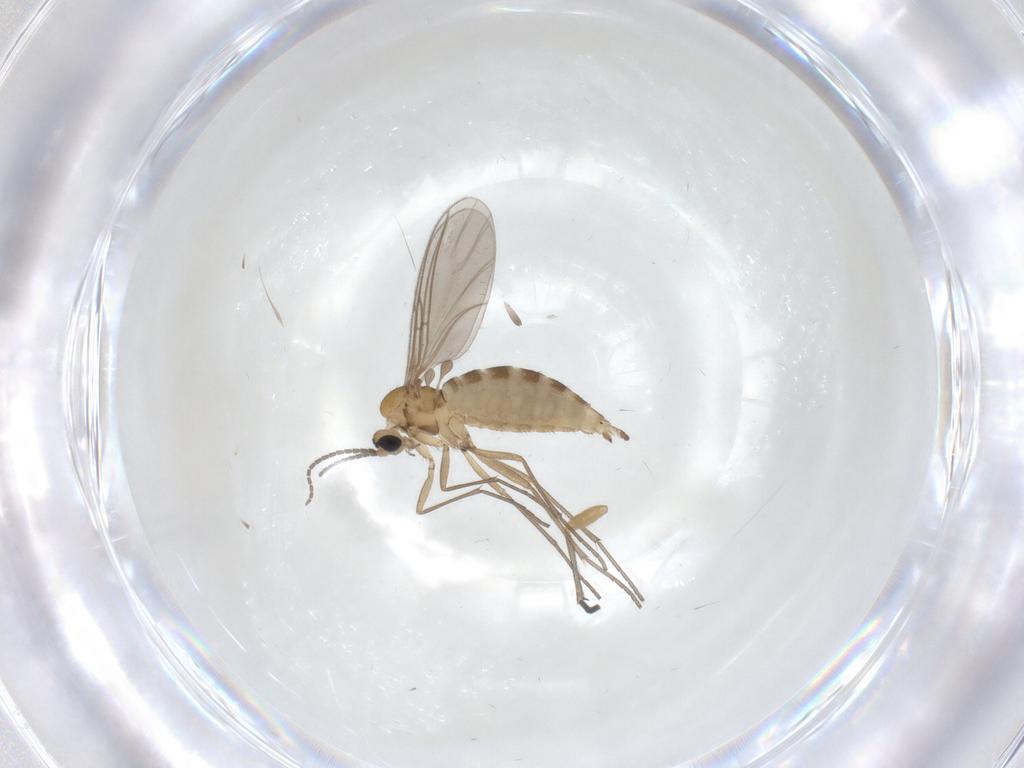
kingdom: Animalia
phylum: Arthropoda
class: Insecta
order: Diptera
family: Sciaridae
